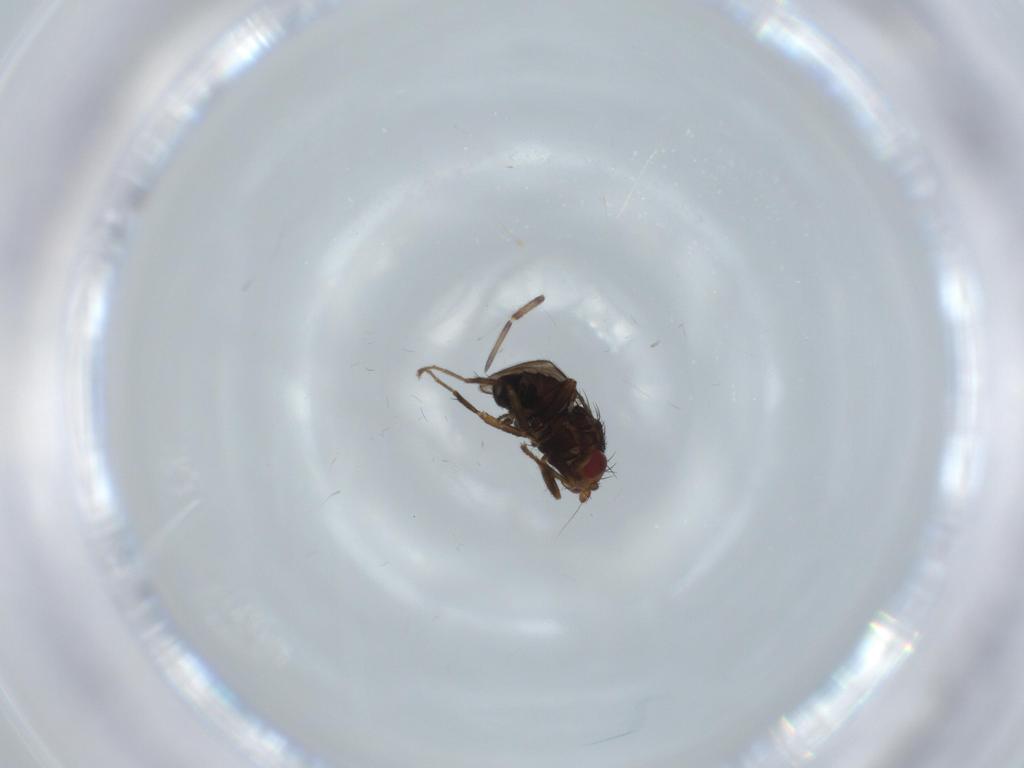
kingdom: Animalia
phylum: Arthropoda
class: Insecta
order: Diptera
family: Sphaeroceridae
